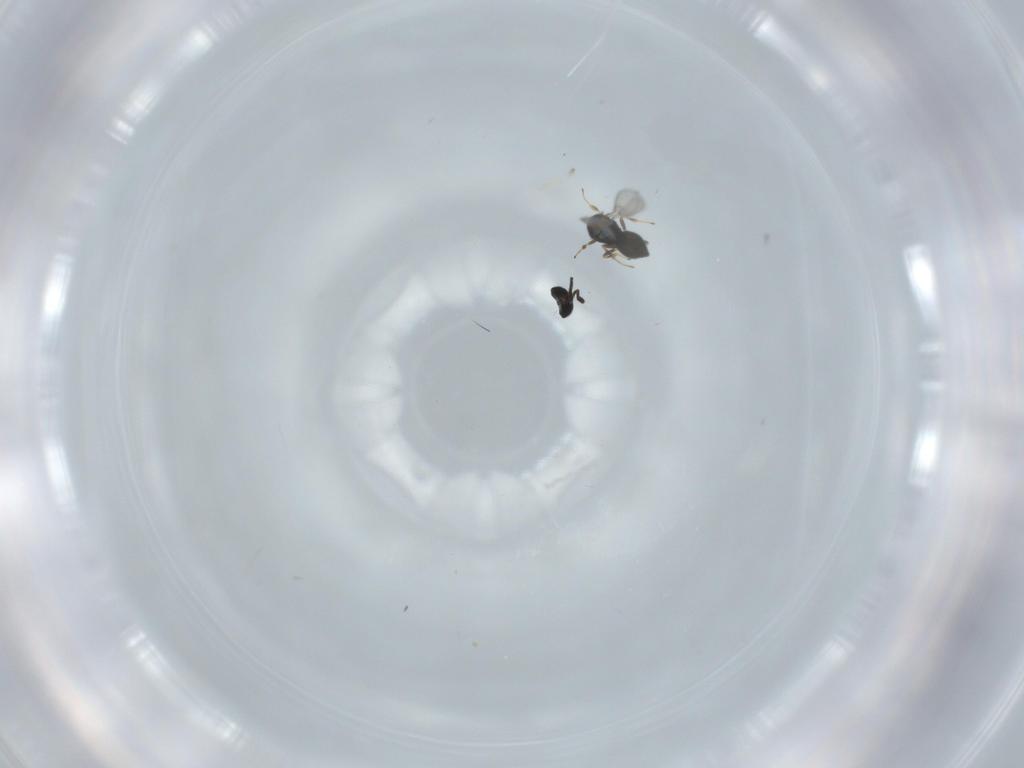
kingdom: Animalia
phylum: Arthropoda
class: Insecta
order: Hymenoptera
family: Scelionidae
